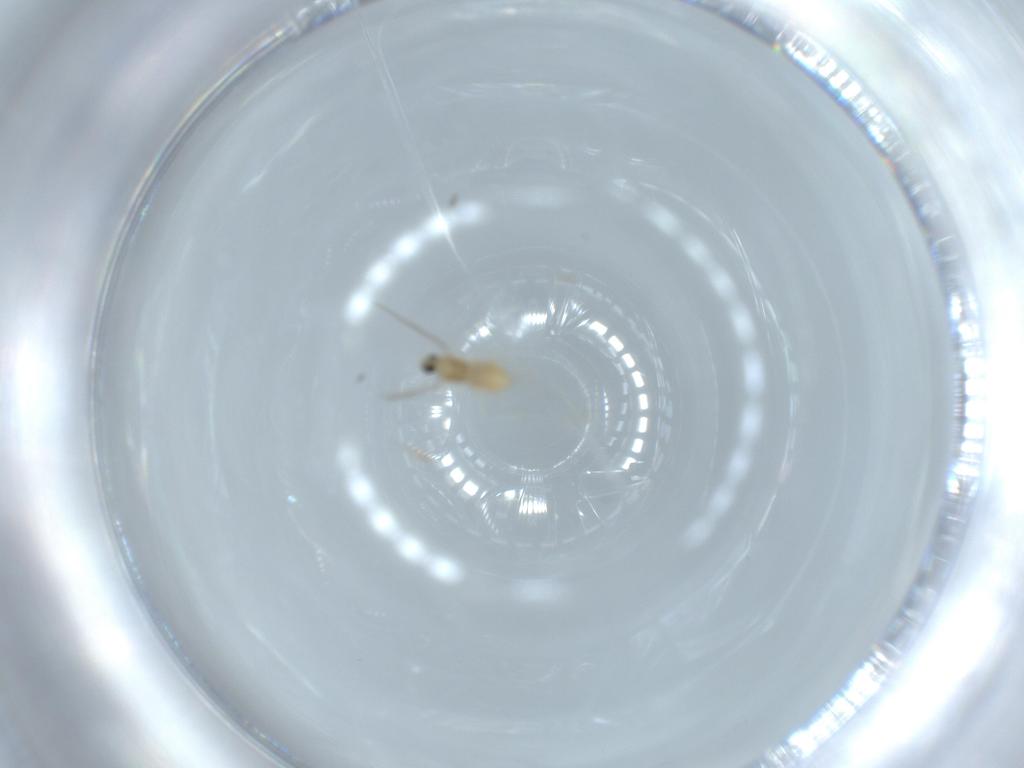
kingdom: Animalia
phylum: Arthropoda
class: Insecta
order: Diptera
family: Cecidomyiidae
